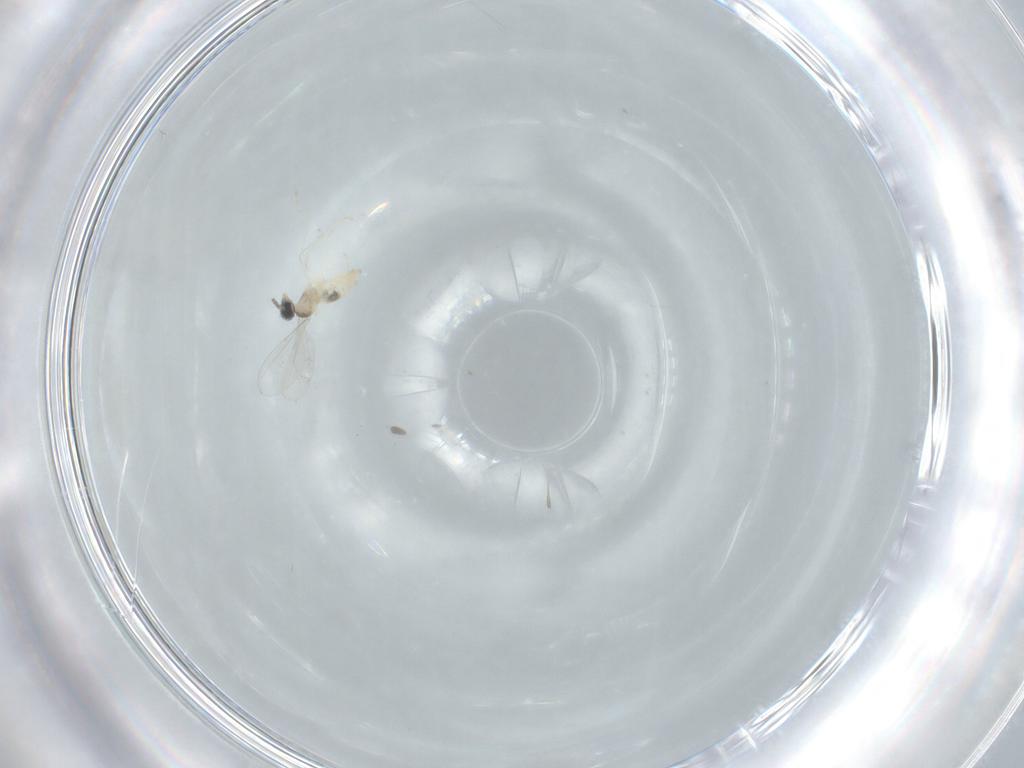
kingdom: Animalia
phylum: Arthropoda
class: Insecta
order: Diptera
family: Cecidomyiidae
